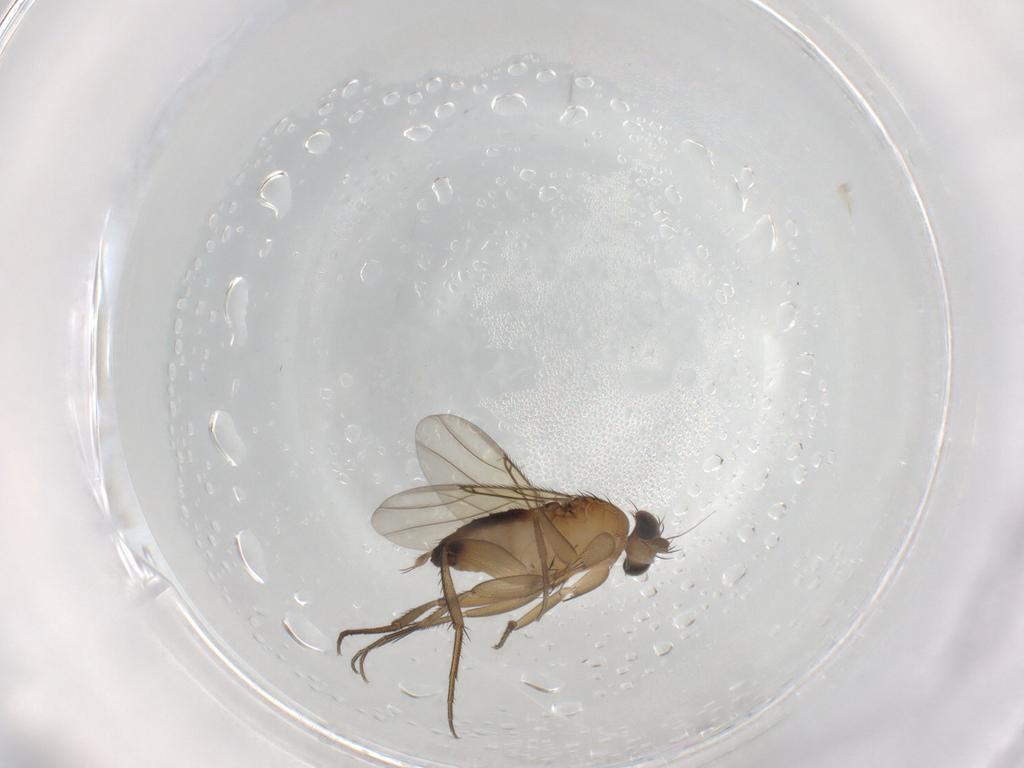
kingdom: Animalia
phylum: Arthropoda
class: Insecta
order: Diptera
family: Phoridae
